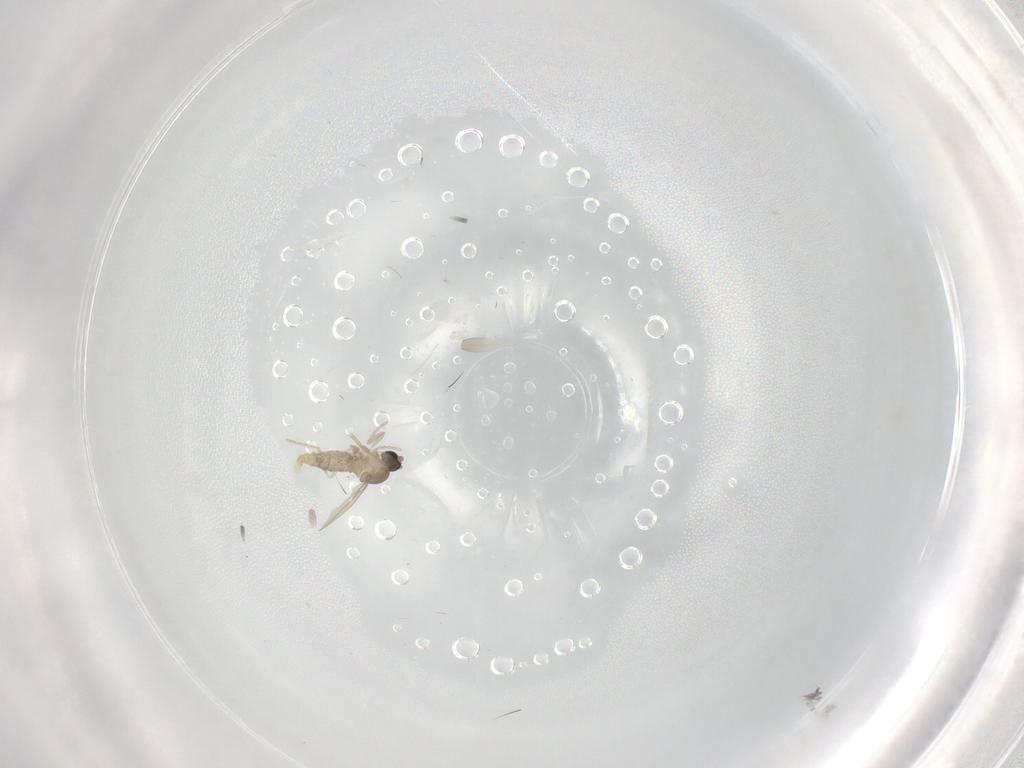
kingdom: Animalia
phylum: Arthropoda
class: Insecta
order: Diptera
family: Cecidomyiidae
